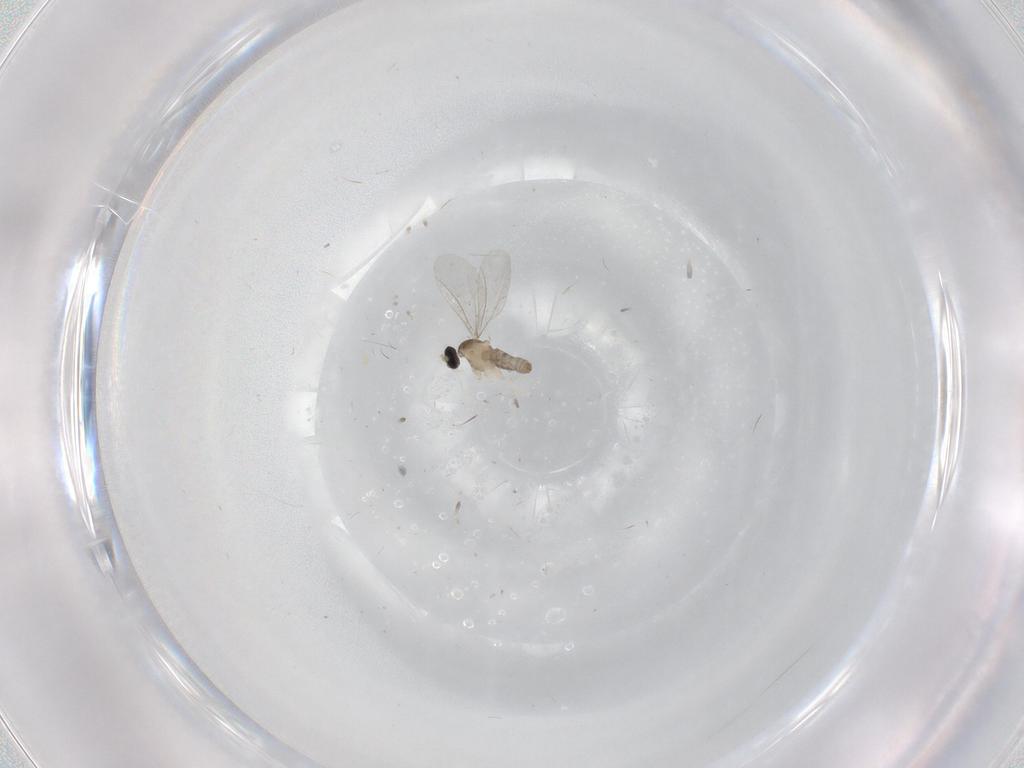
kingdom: Animalia
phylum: Arthropoda
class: Insecta
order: Diptera
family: Cecidomyiidae
